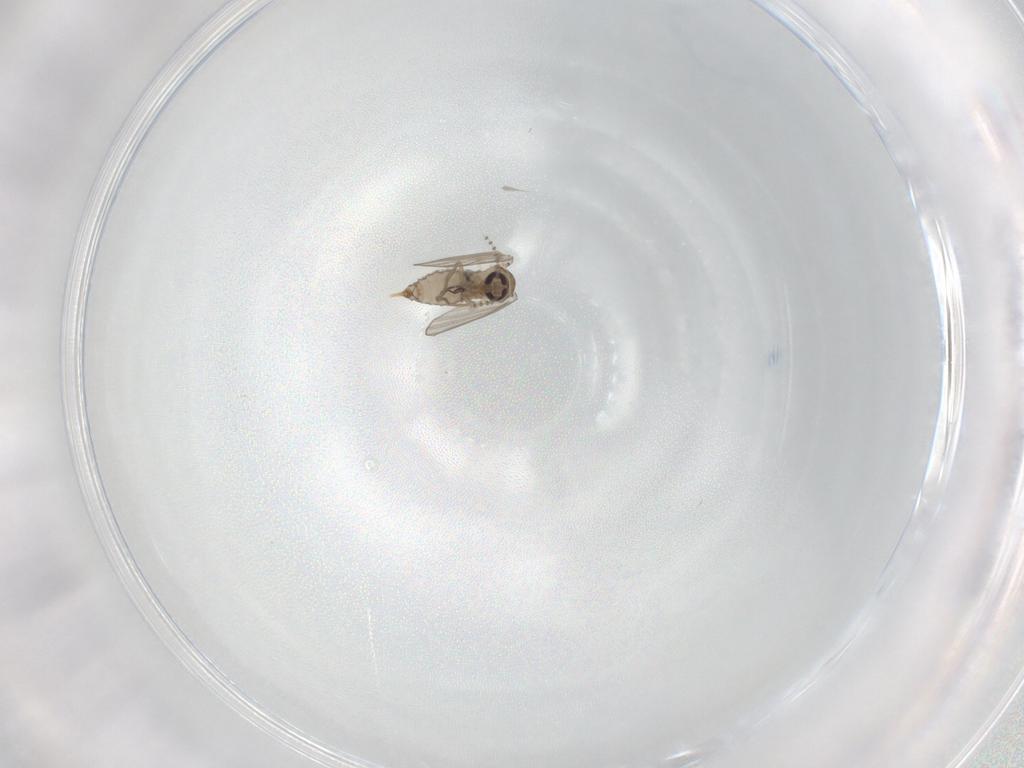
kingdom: Animalia
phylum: Arthropoda
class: Insecta
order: Diptera
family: Psychodidae
